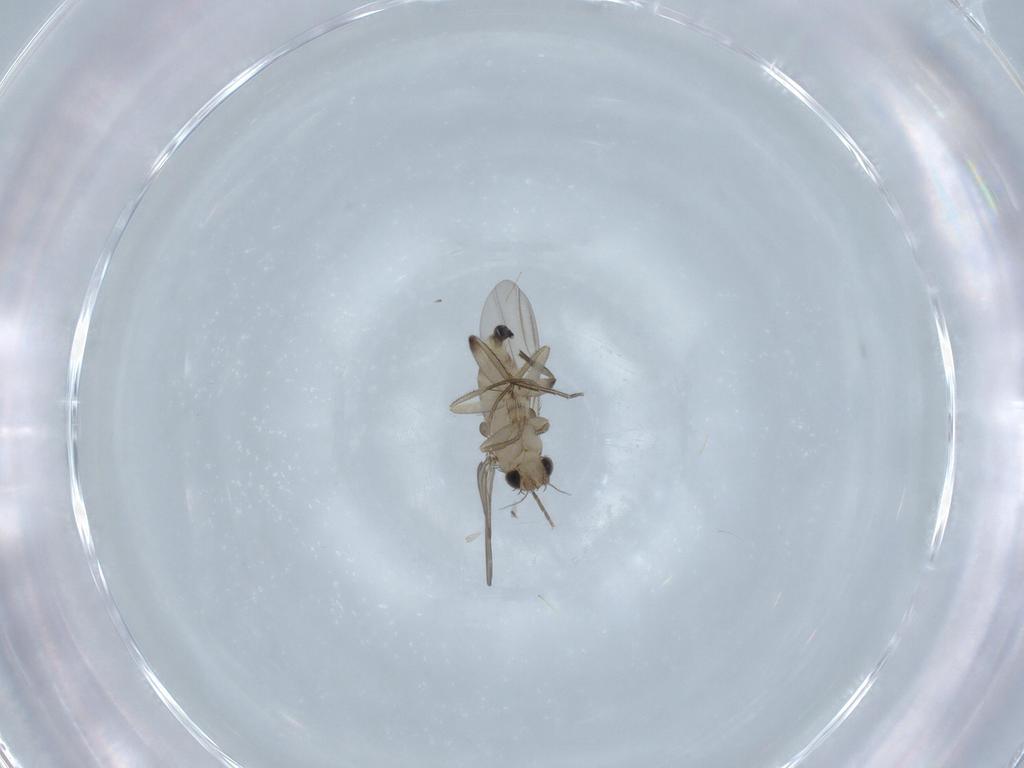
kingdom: Animalia
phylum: Arthropoda
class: Insecta
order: Diptera
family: Phoridae
